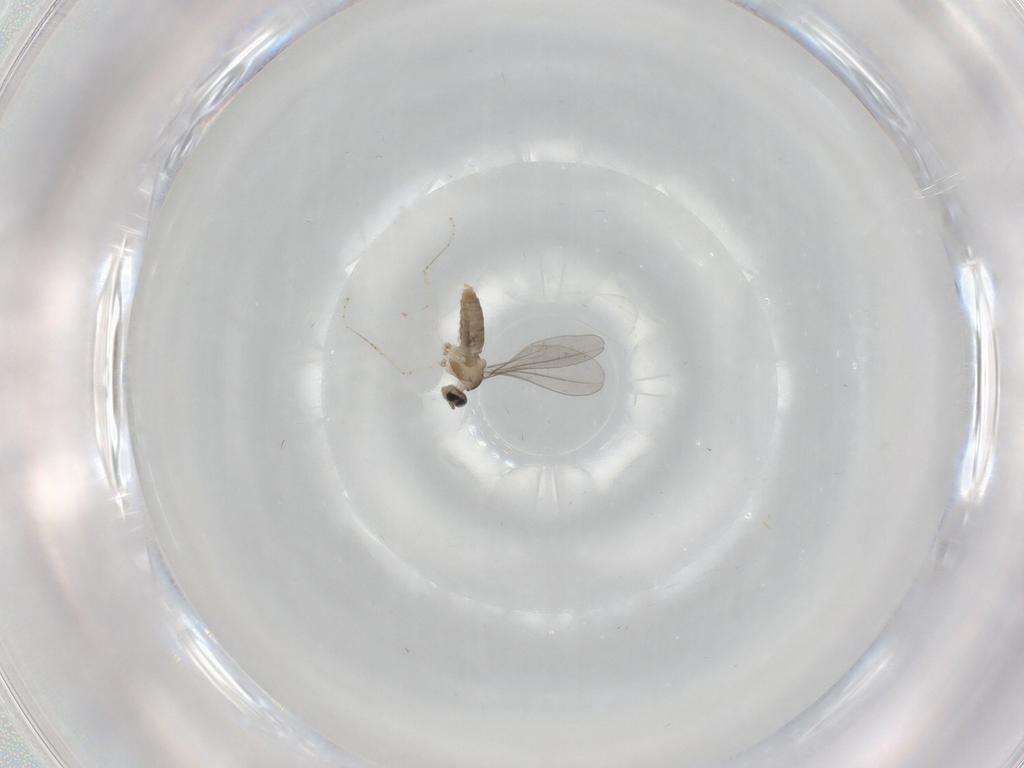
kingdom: Animalia
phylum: Arthropoda
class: Insecta
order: Diptera
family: Cecidomyiidae
